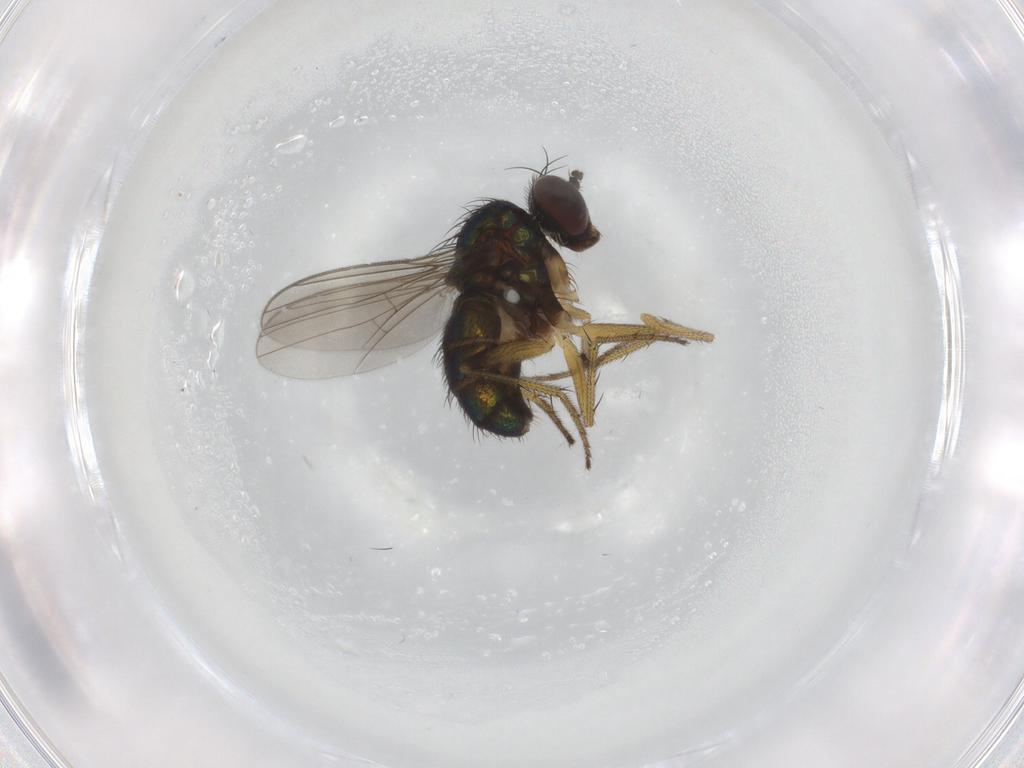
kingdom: Animalia
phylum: Arthropoda
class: Insecta
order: Diptera
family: Dolichopodidae
